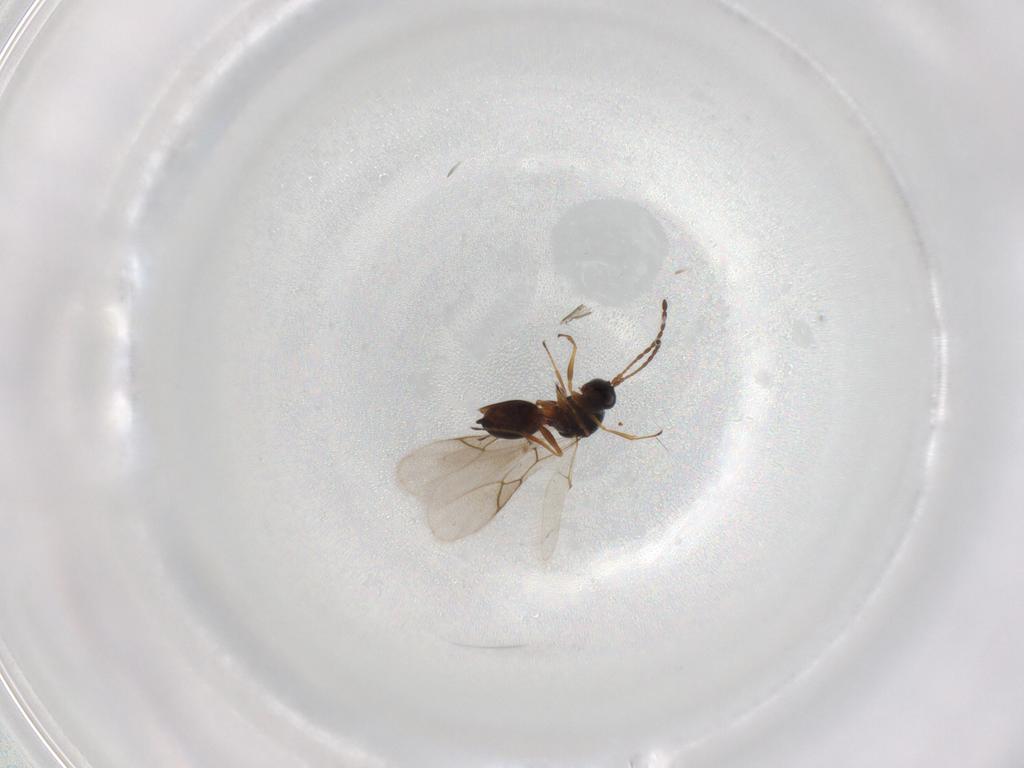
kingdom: Animalia
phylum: Arthropoda
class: Insecta
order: Hymenoptera
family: Figitidae
